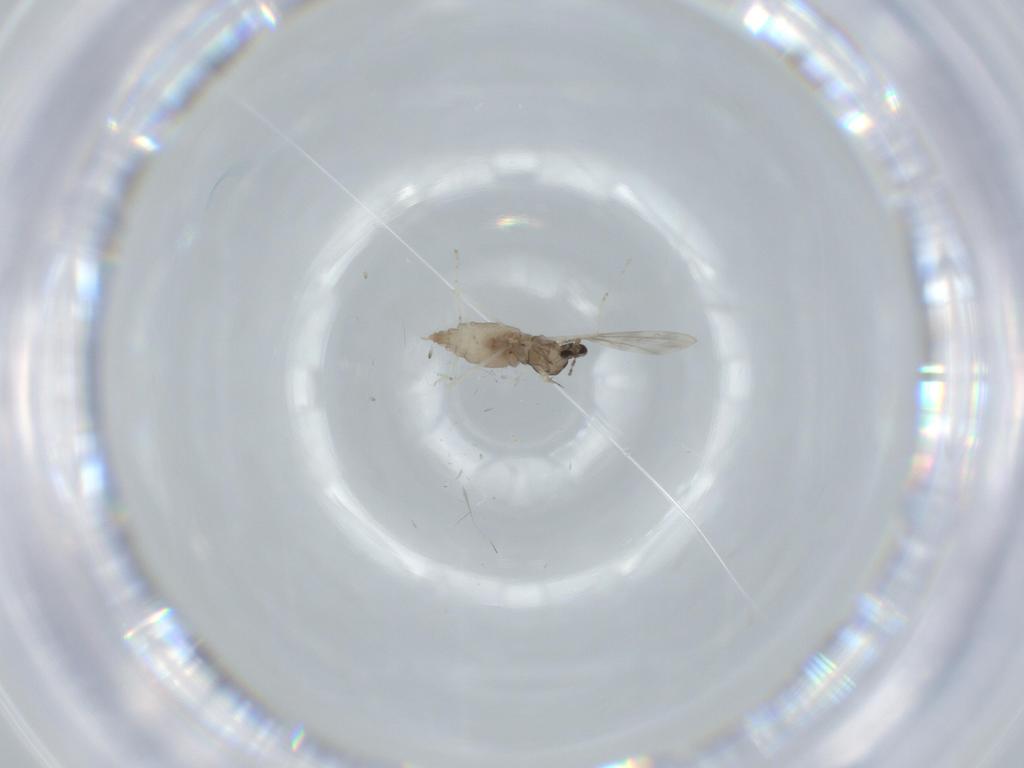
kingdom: Animalia
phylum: Arthropoda
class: Insecta
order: Diptera
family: Cecidomyiidae
